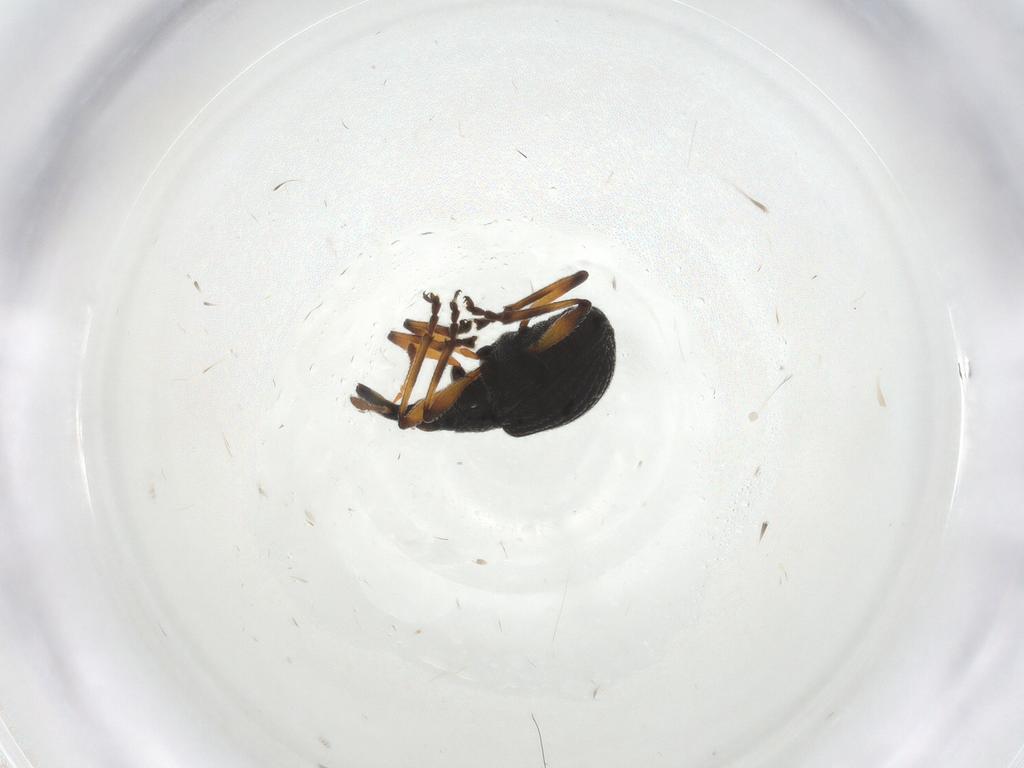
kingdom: Animalia
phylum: Arthropoda
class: Insecta
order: Coleoptera
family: Brentidae
